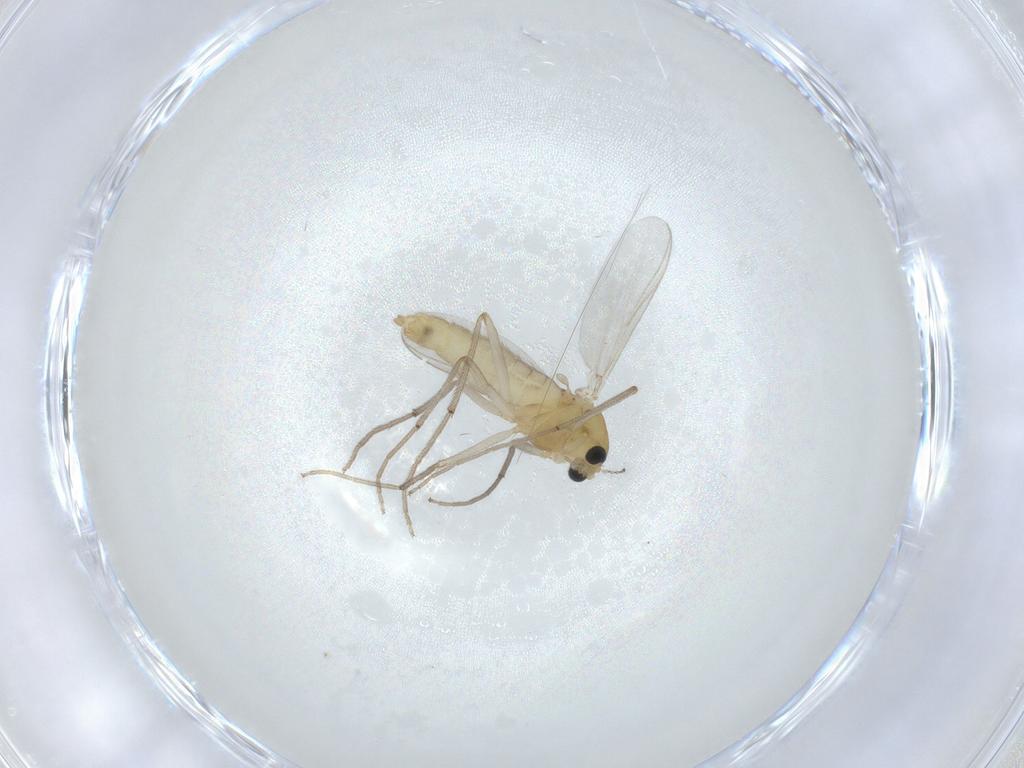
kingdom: Animalia
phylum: Arthropoda
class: Insecta
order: Diptera
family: Chironomidae
